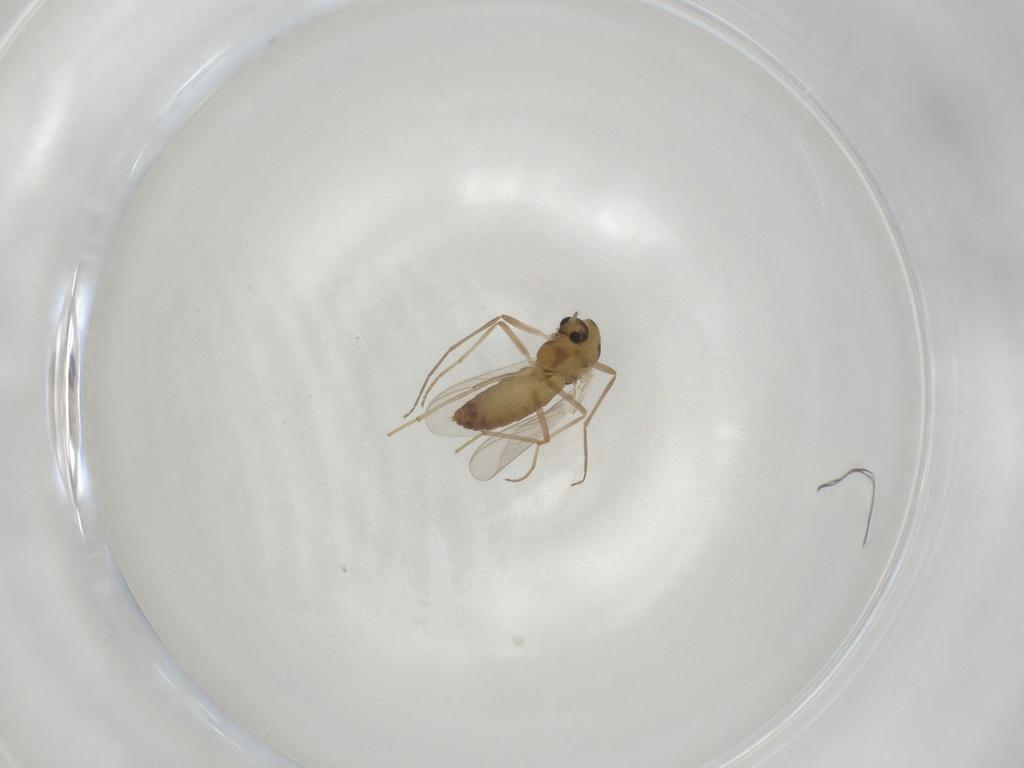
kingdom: Animalia
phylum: Arthropoda
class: Insecta
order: Diptera
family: Chironomidae
